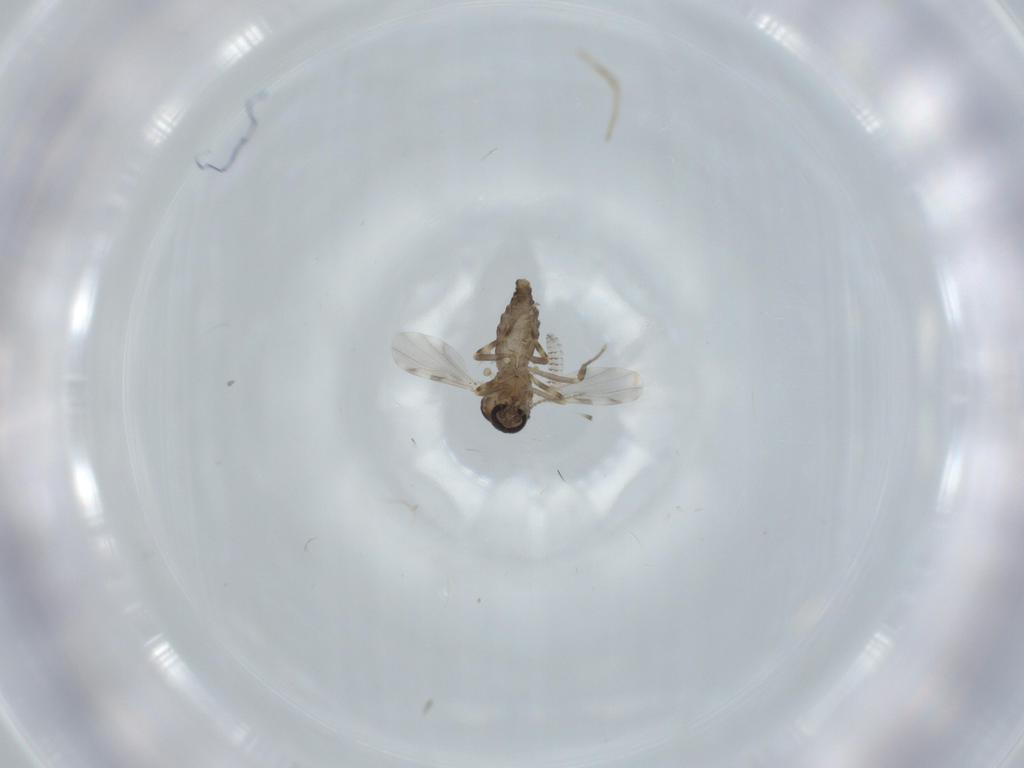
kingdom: Animalia
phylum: Arthropoda
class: Insecta
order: Diptera
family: Ceratopogonidae
